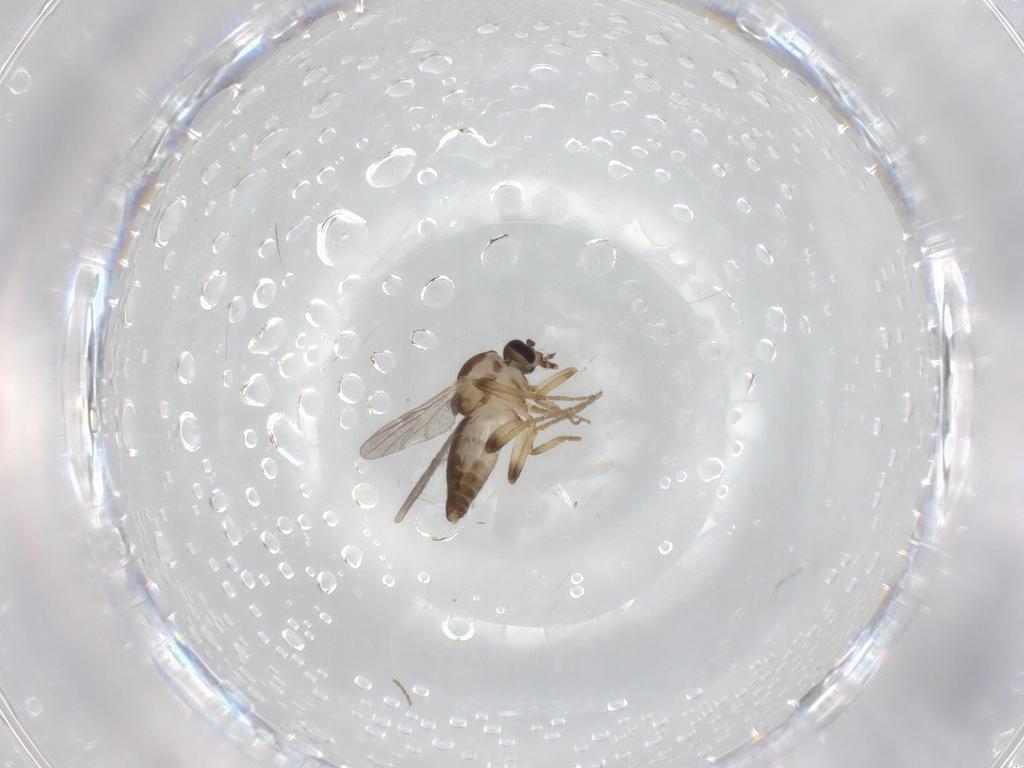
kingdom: Animalia
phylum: Arthropoda
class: Insecta
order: Diptera
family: Ceratopogonidae
